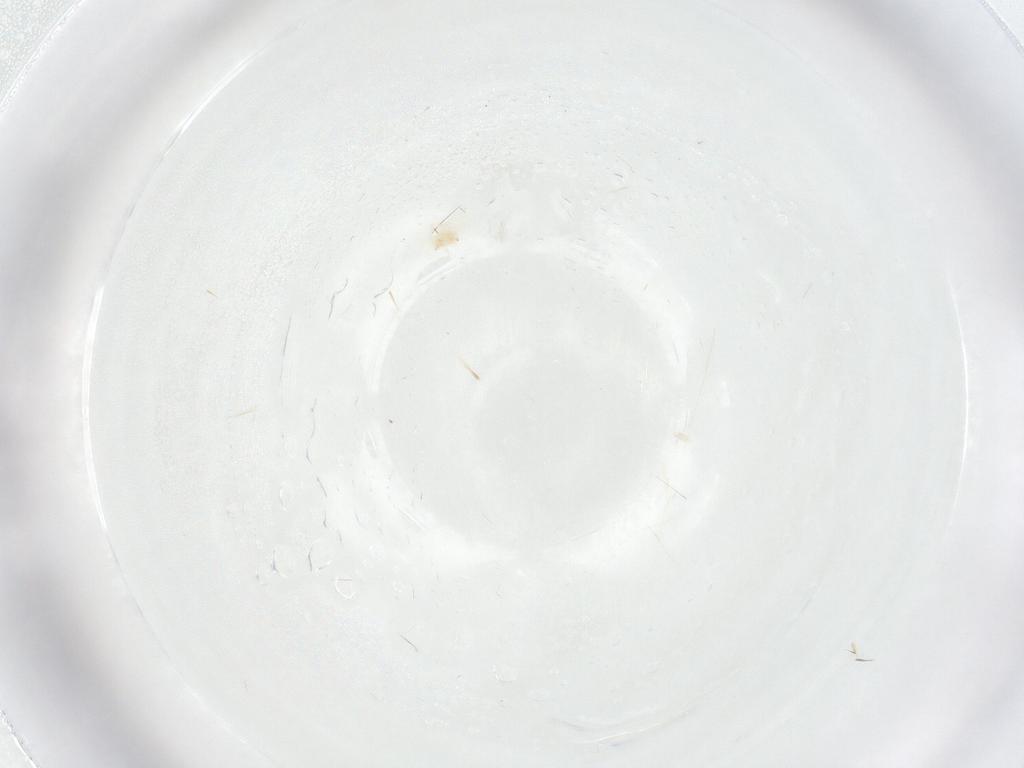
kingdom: Animalia
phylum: Arthropoda
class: Arachnida
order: Trombidiformes
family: Anystidae
